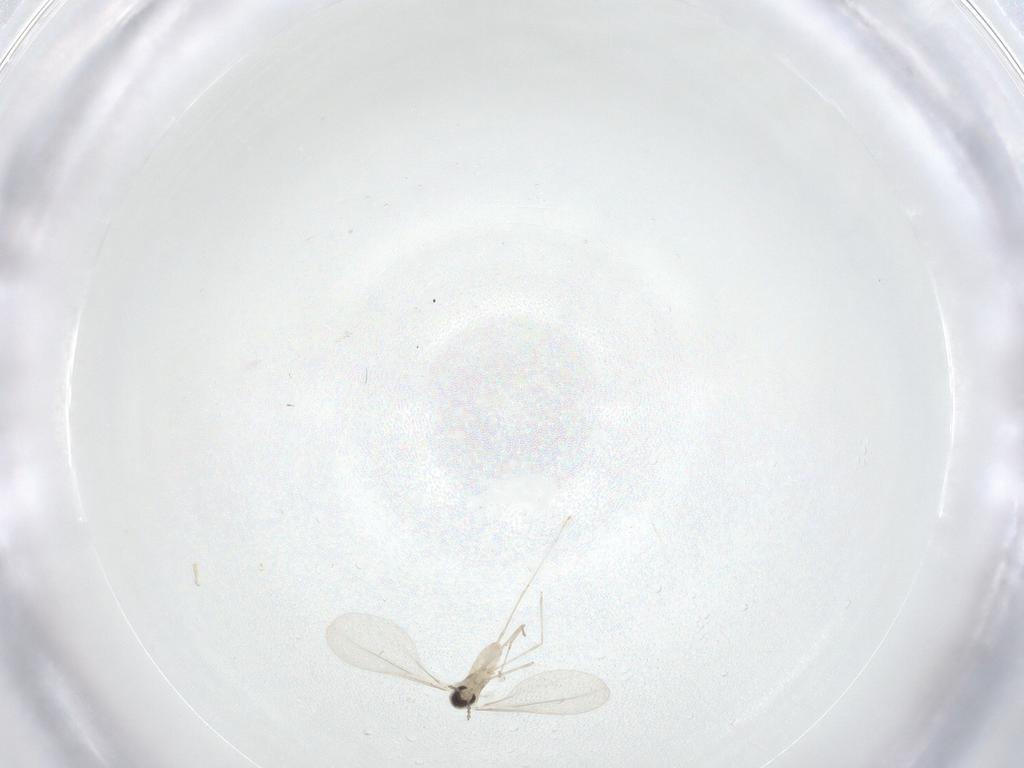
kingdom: Animalia
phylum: Arthropoda
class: Insecta
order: Diptera
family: Cecidomyiidae
